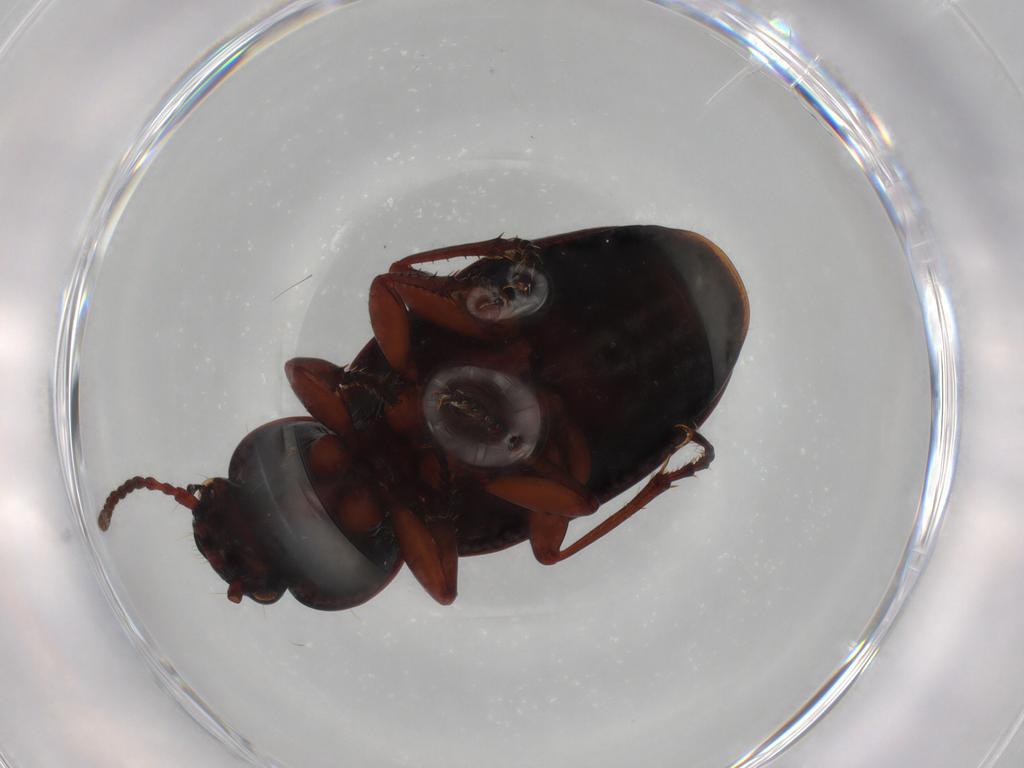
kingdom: Animalia
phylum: Arthropoda
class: Insecta
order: Coleoptera
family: Carabidae
